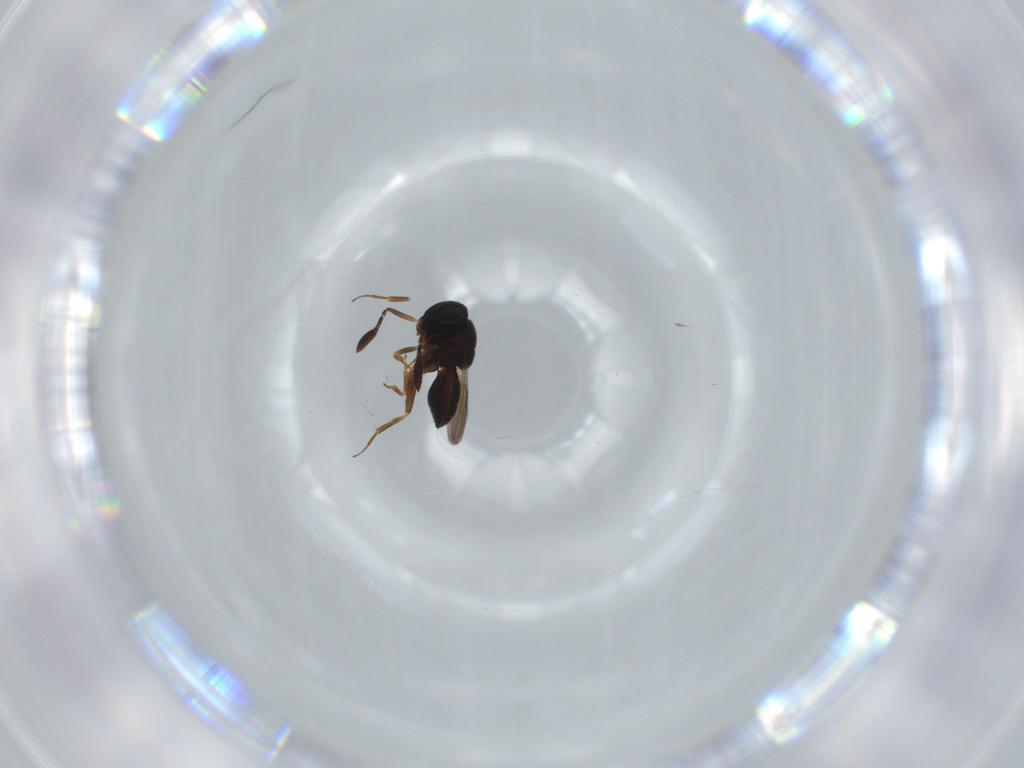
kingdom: Animalia
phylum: Arthropoda
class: Insecta
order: Hymenoptera
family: Scelionidae
